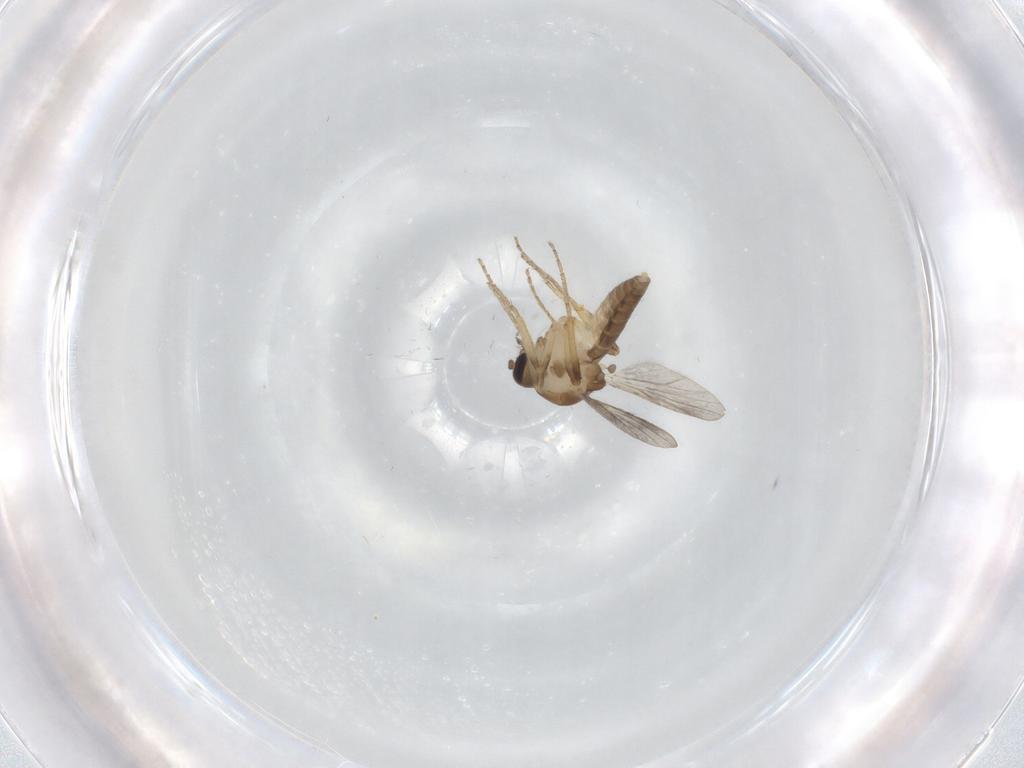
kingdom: Animalia
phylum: Arthropoda
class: Insecta
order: Diptera
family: Ceratopogonidae
